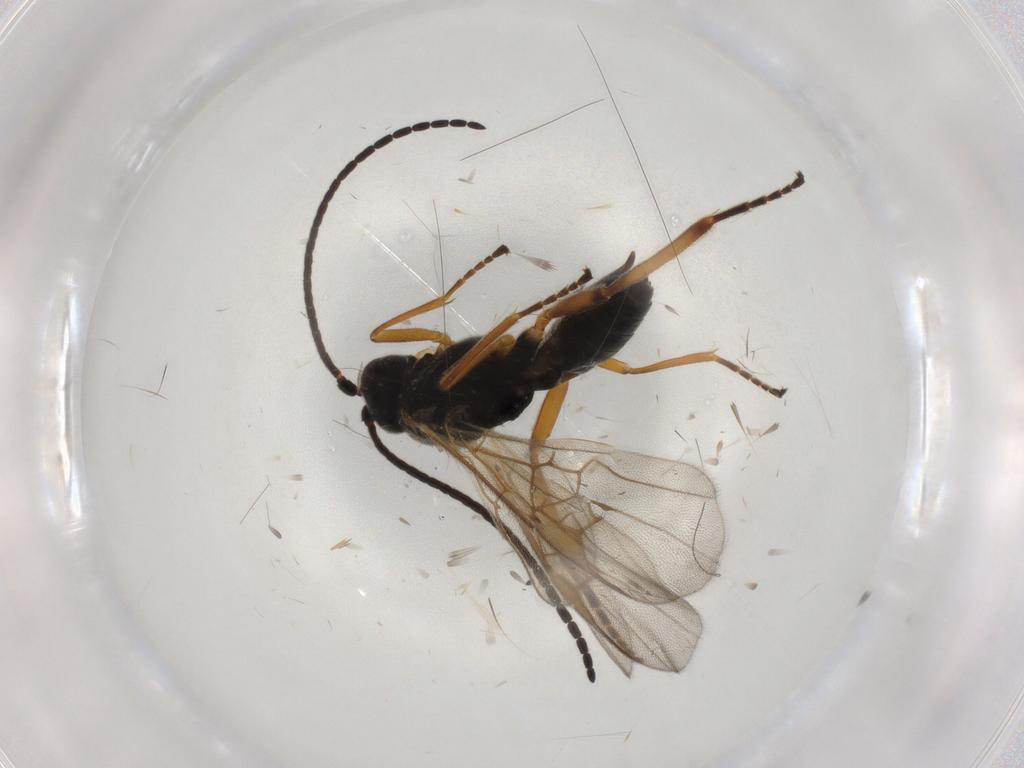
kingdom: Animalia
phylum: Arthropoda
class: Insecta
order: Hymenoptera
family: Braconidae
